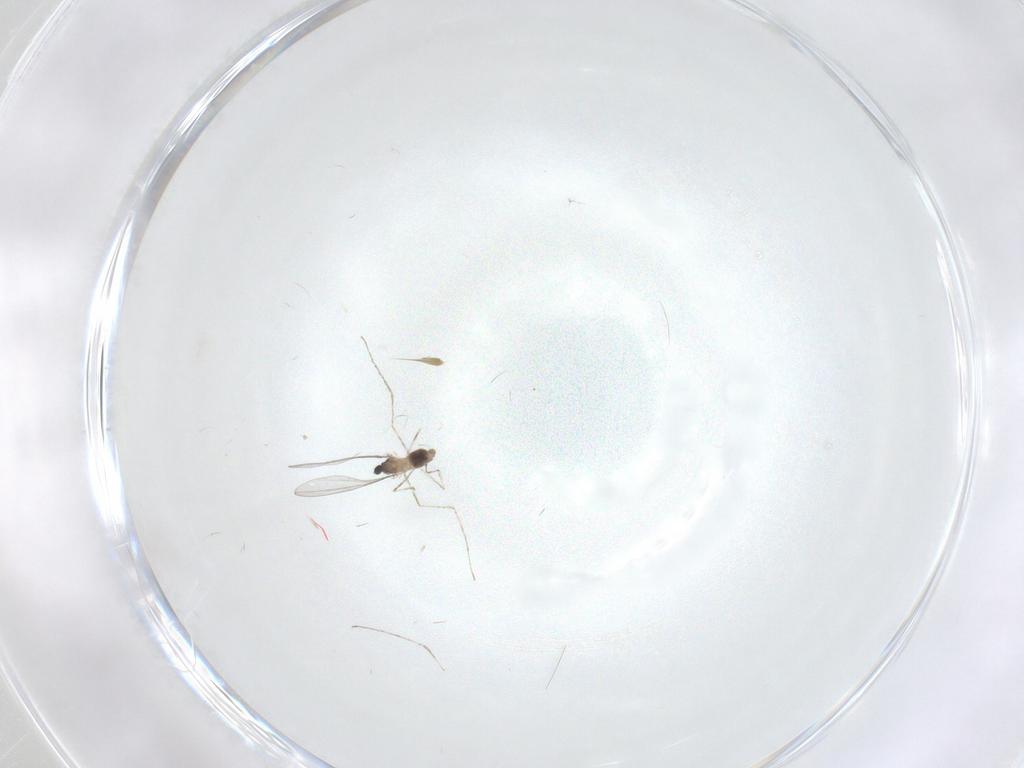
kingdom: Animalia
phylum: Arthropoda
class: Insecta
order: Diptera
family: Cecidomyiidae
